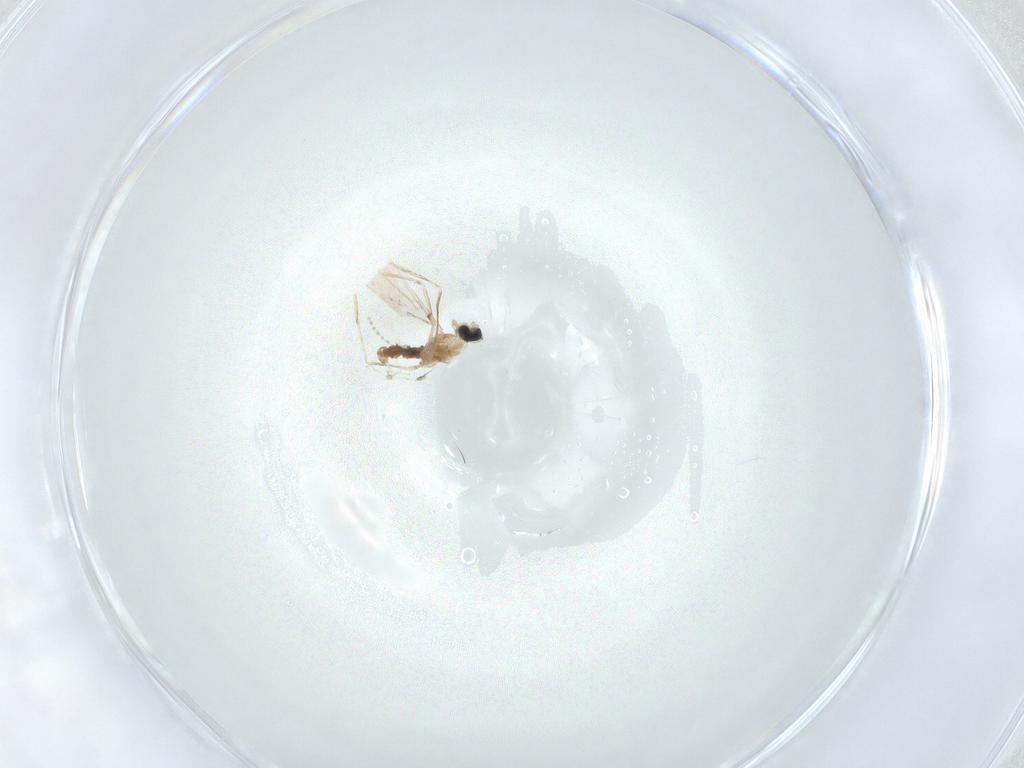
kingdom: Animalia
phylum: Arthropoda
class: Insecta
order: Diptera
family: Cecidomyiidae
